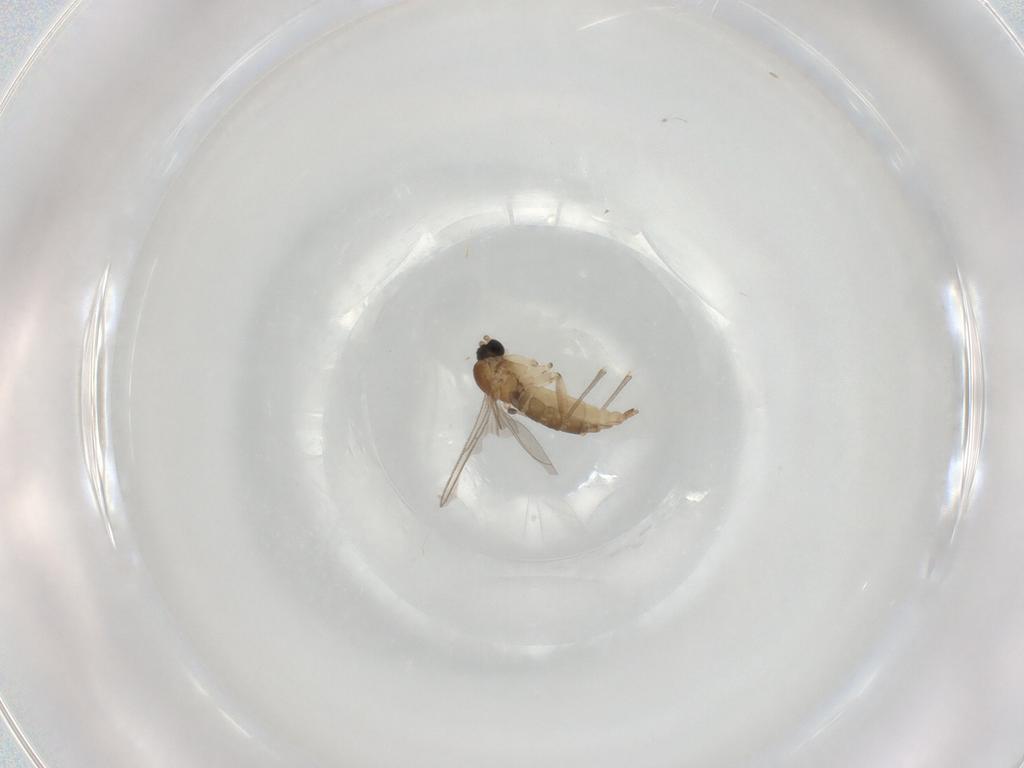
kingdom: Animalia
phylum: Arthropoda
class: Insecta
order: Diptera
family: Sciaridae
